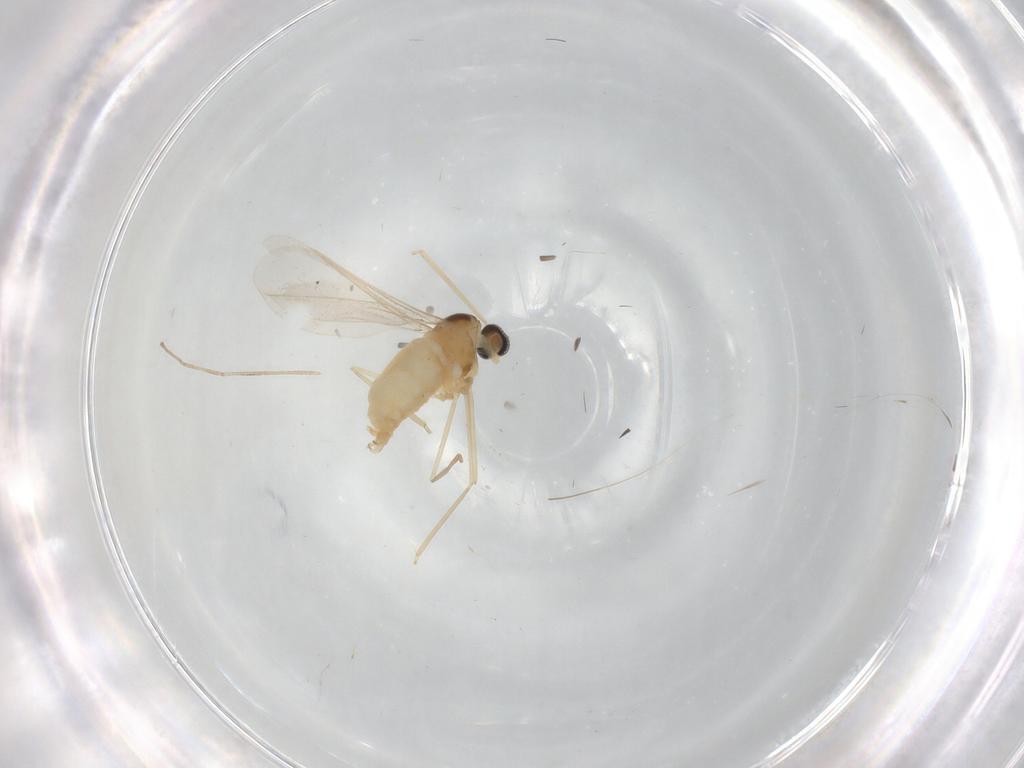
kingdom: Animalia
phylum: Arthropoda
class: Insecta
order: Diptera
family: Cecidomyiidae
